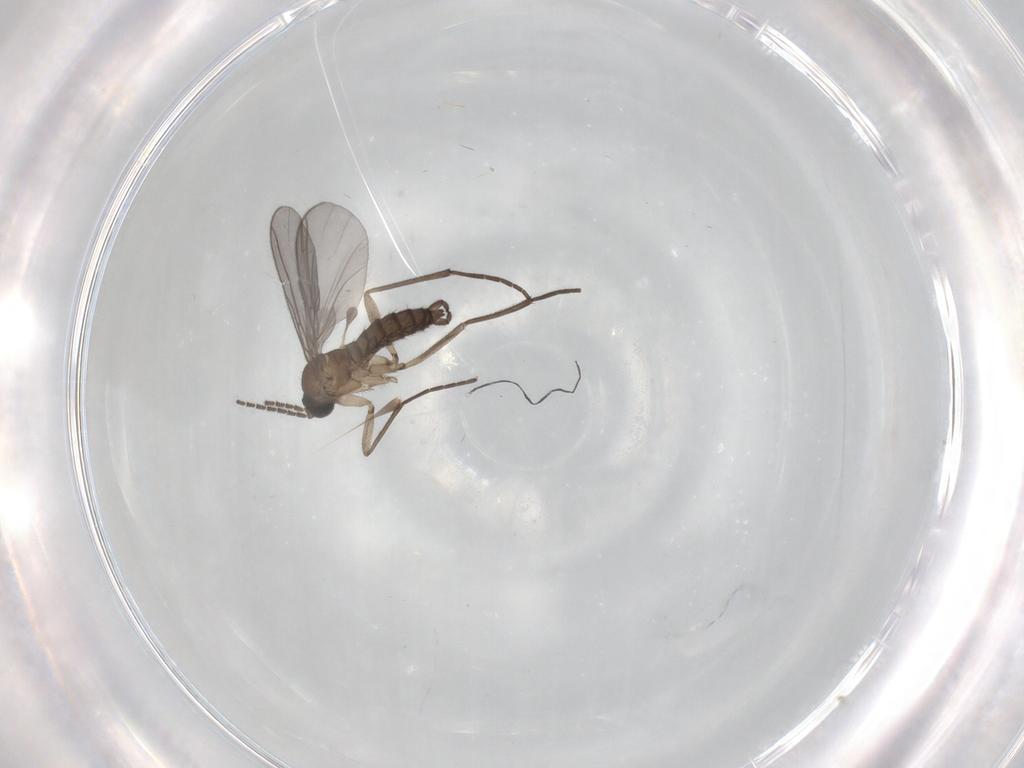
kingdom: Animalia
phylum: Arthropoda
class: Insecta
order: Diptera
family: Sciaridae
